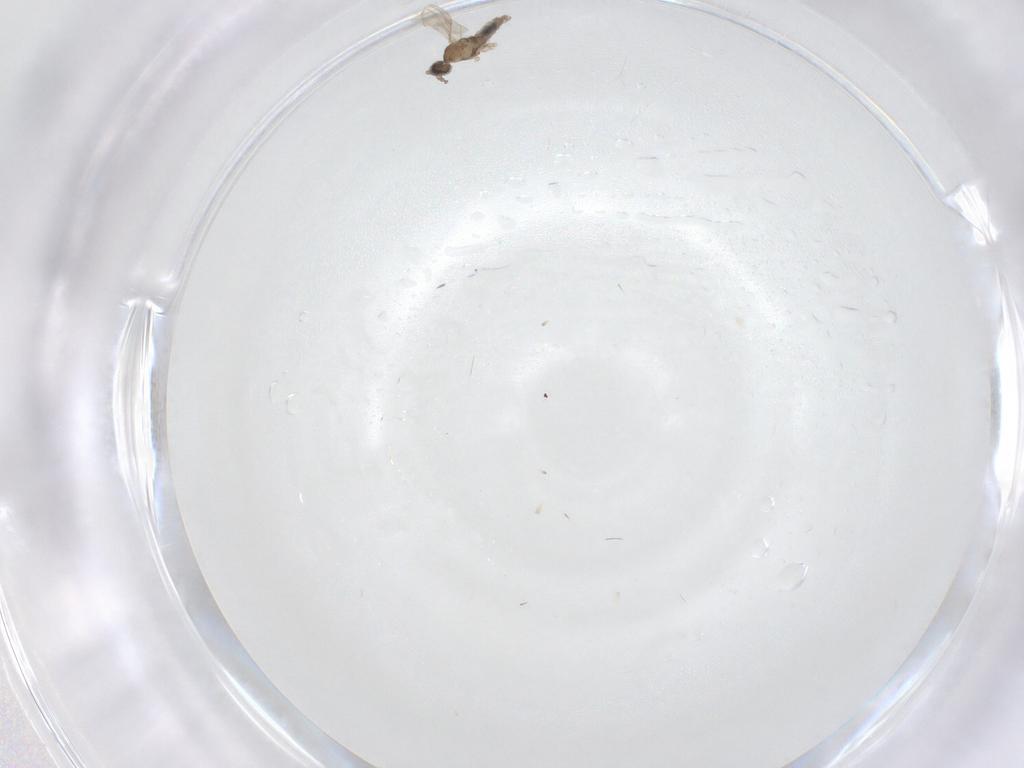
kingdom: Animalia
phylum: Arthropoda
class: Insecta
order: Diptera
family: Cecidomyiidae
